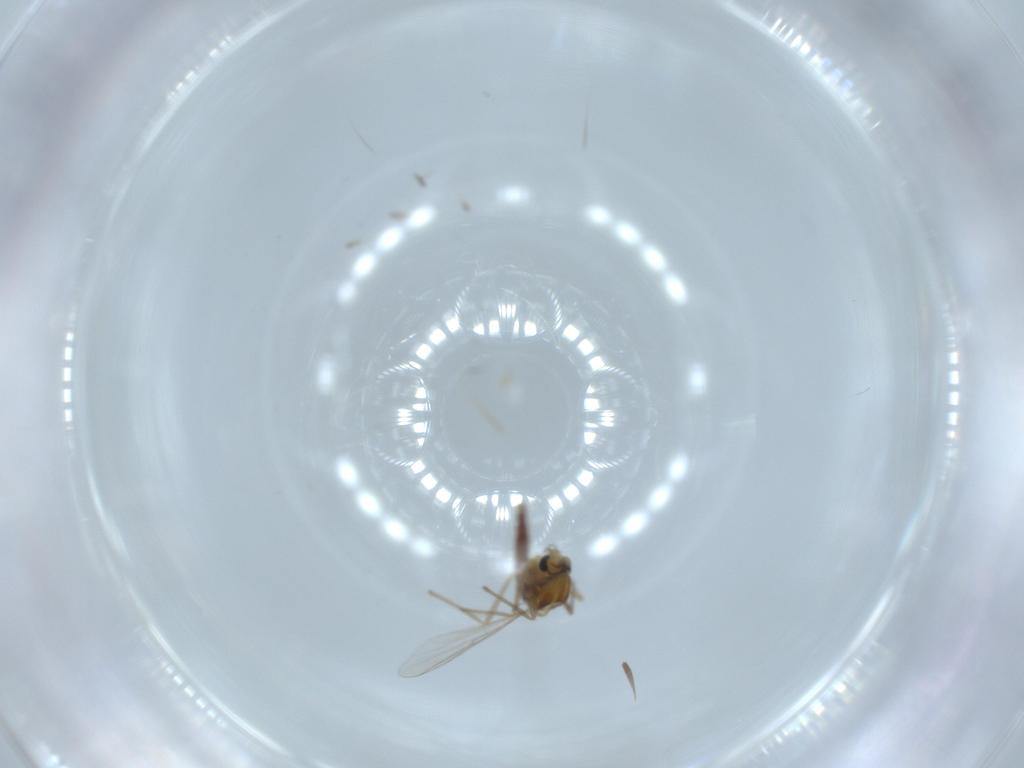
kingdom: Animalia
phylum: Arthropoda
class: Insecta
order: Diptera
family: Chironomidae
